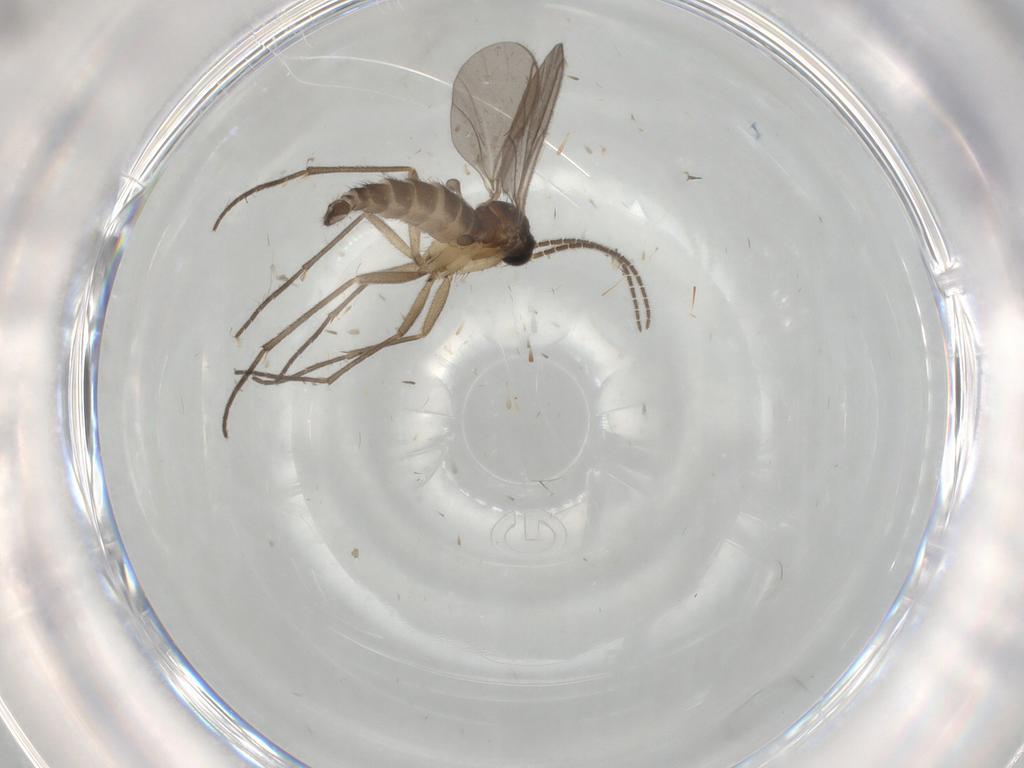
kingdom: Animalia
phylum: Arthropoda
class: Insecta
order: Diptera
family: Sciaridae
